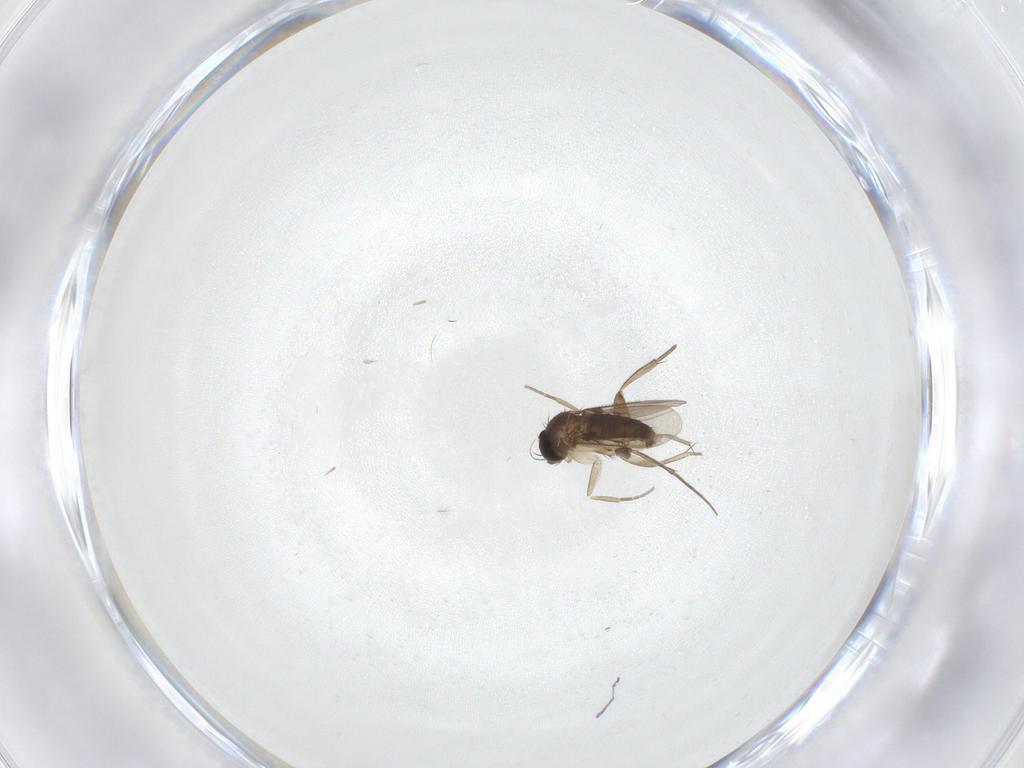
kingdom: Animalia
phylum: Arthropoda
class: Insecta
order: Diptera
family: Phoridae
